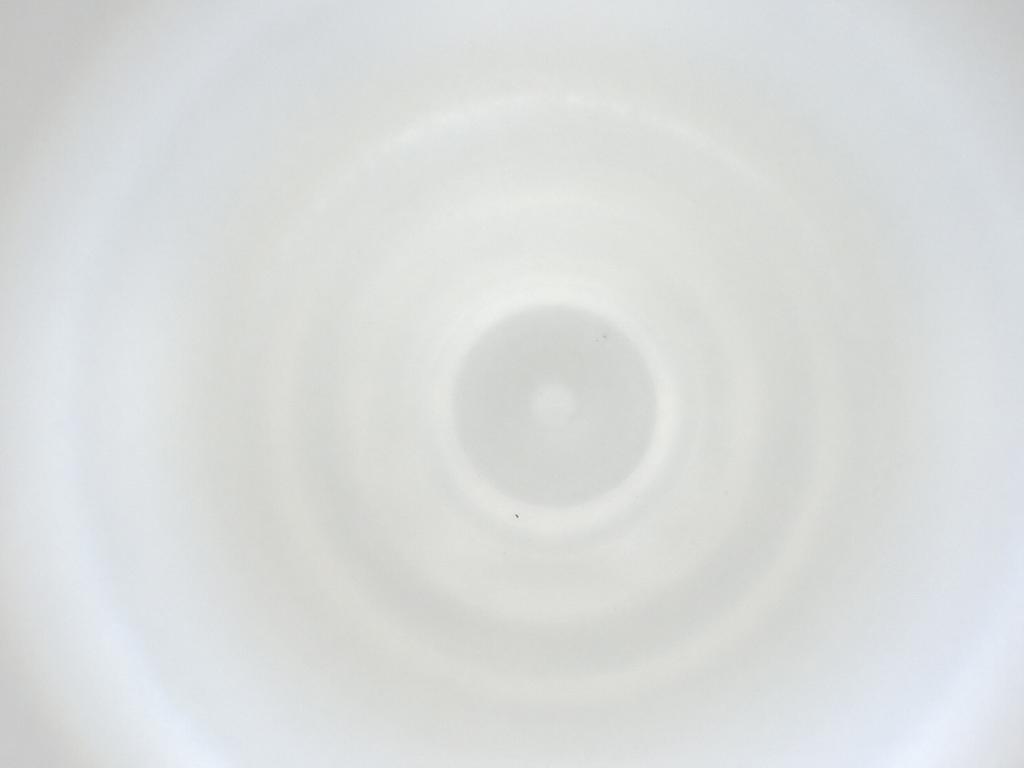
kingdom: Animalia
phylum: Arthropoda
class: Insecta
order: Diptera
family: Cecidomyiidae
